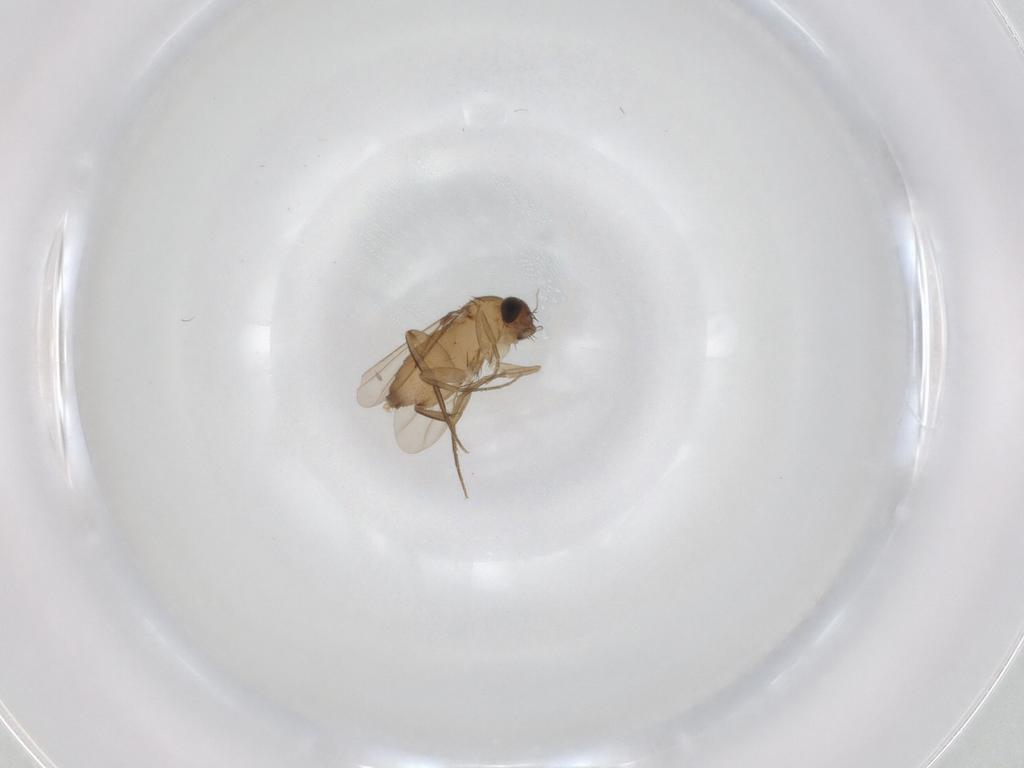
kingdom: Animalia
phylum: Arthropoda
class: Insecta
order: Diptera
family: Phoridae
